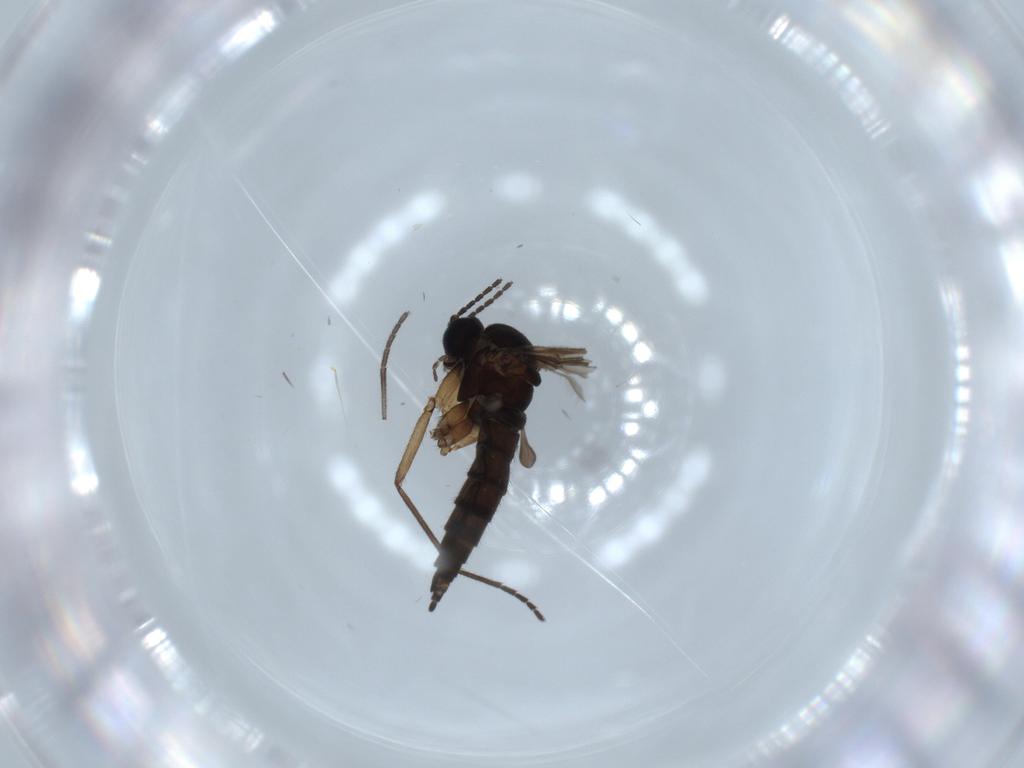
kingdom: Animalia
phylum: Arthropoda
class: Insecta
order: Diptera
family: Sciaridae
